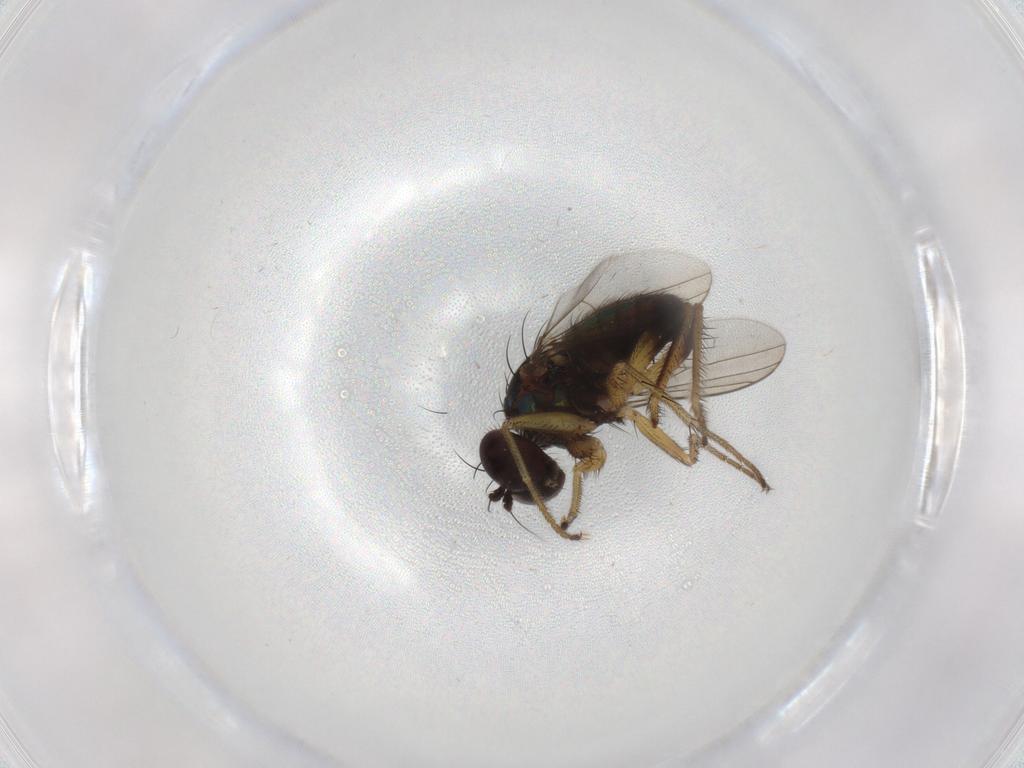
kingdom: Animalia
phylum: Arthropoda
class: Insecta
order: Diptera
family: Dolichopodidae
